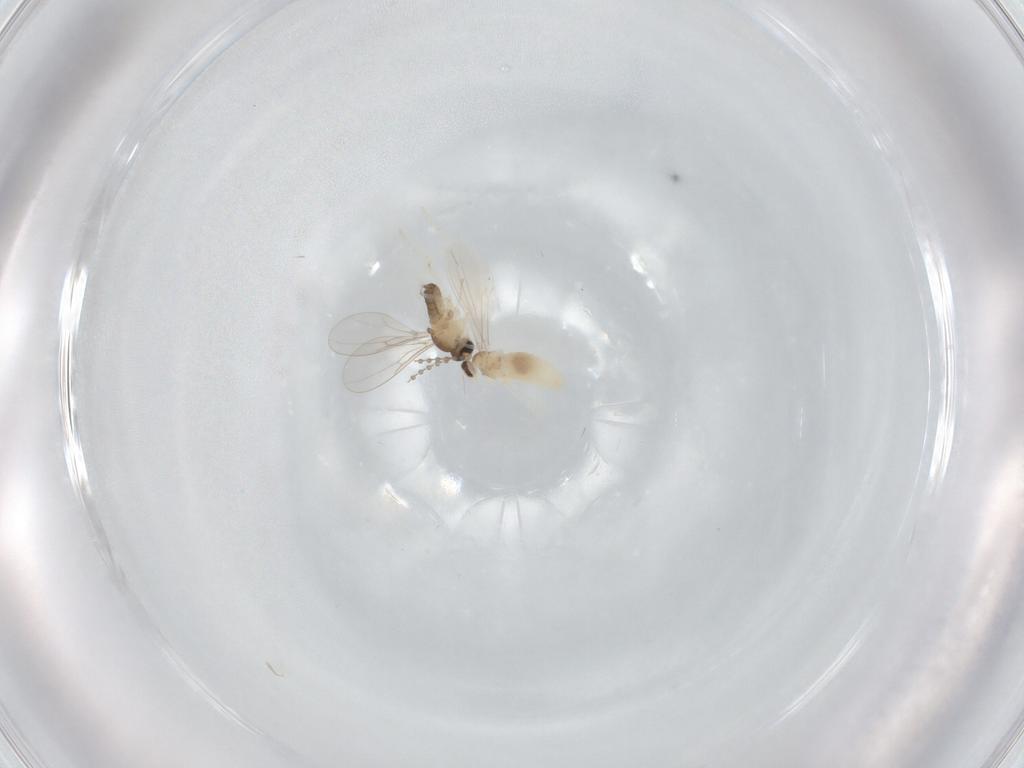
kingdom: Animalia
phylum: Arthropoda
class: Insecta
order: Diptera
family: Cecidomyiidae
